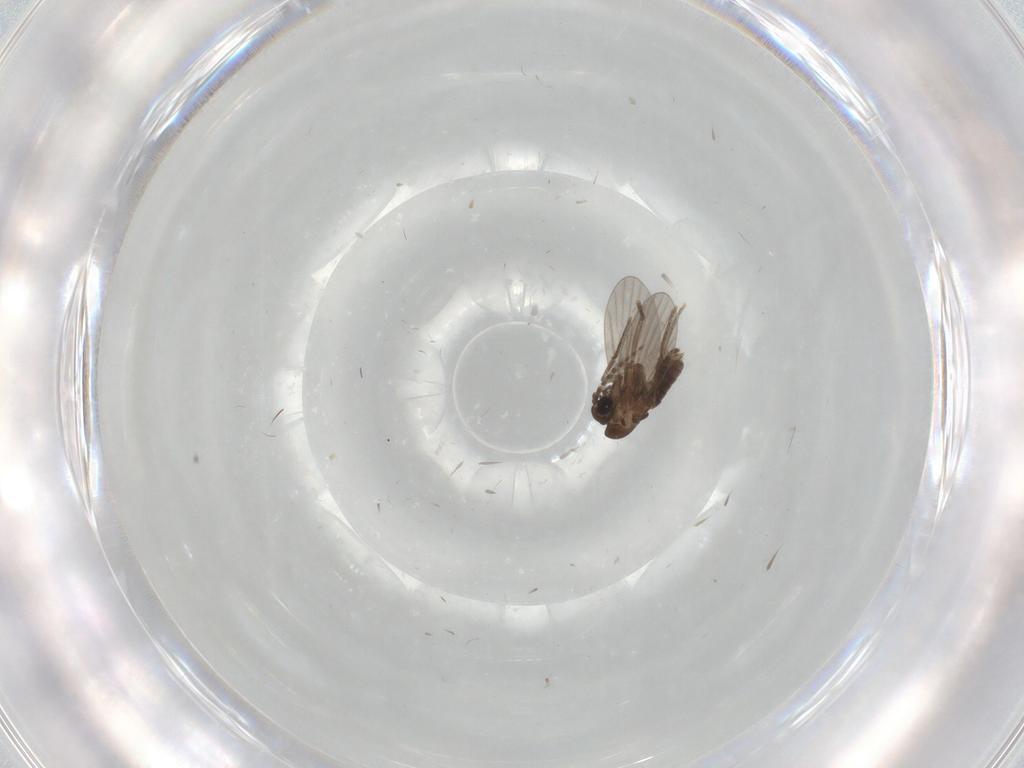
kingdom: Animalia
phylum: Arthropoda
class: Insecta
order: Diptera
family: Cecidomyiidae
